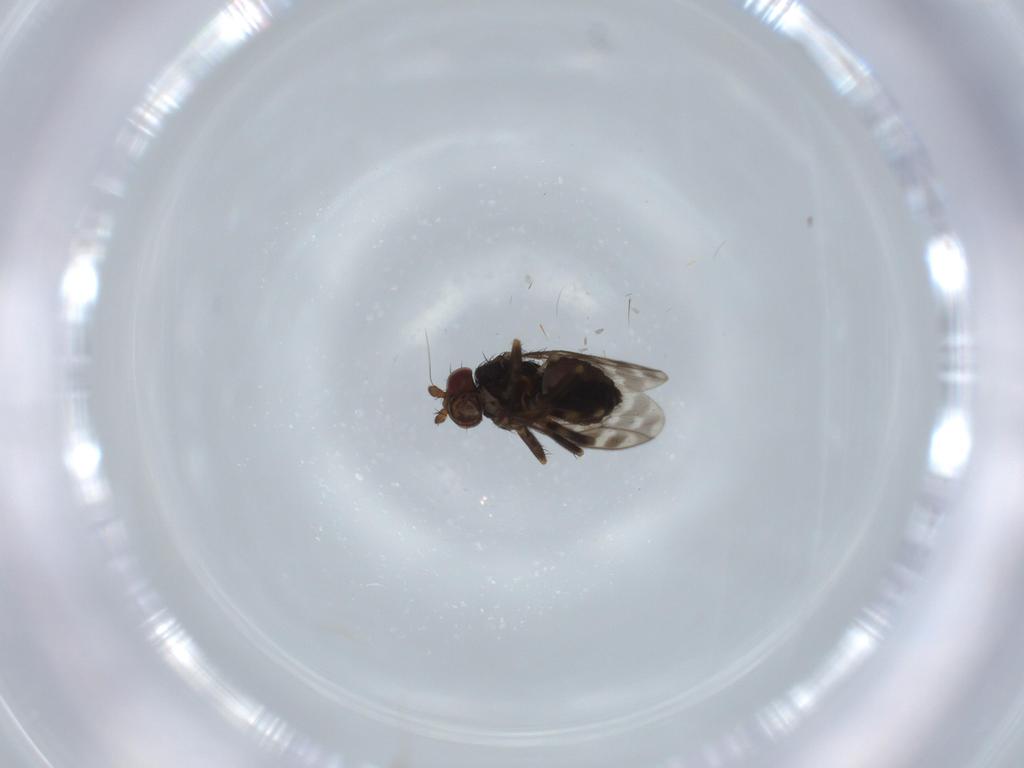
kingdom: Animalia
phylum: Arthropoda
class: Insecta
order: Diptera
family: Sphaeroceridae
